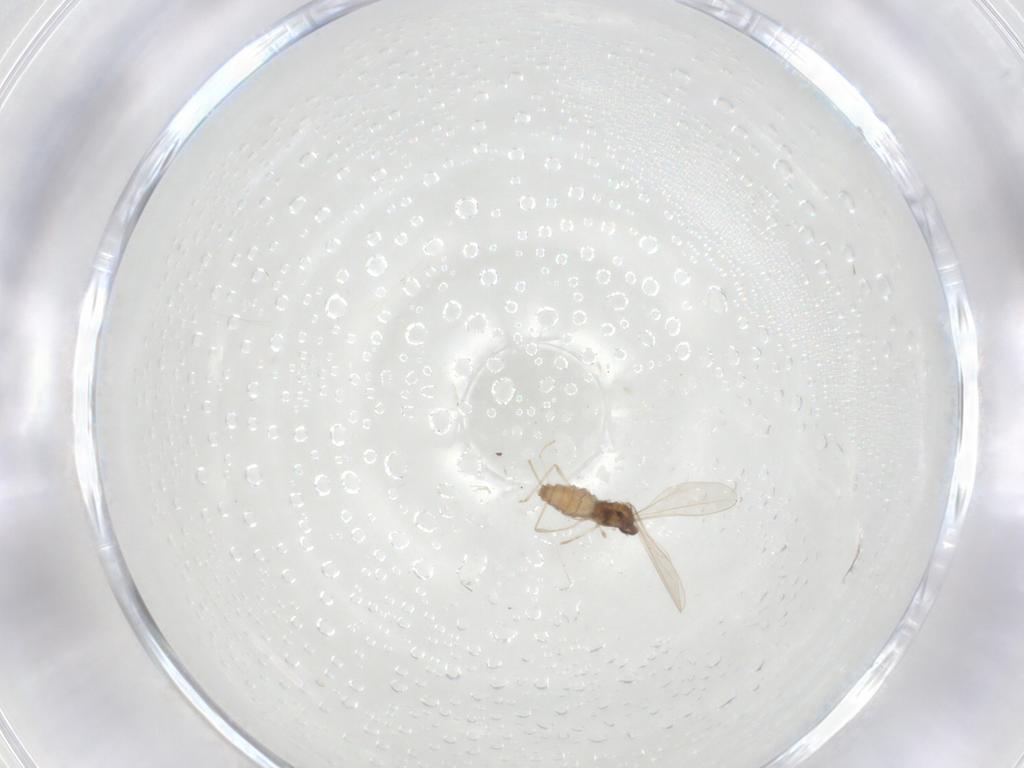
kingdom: Animalia
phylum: Arthropoda
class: Insecta
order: Diptera
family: Cecidomyiidae
